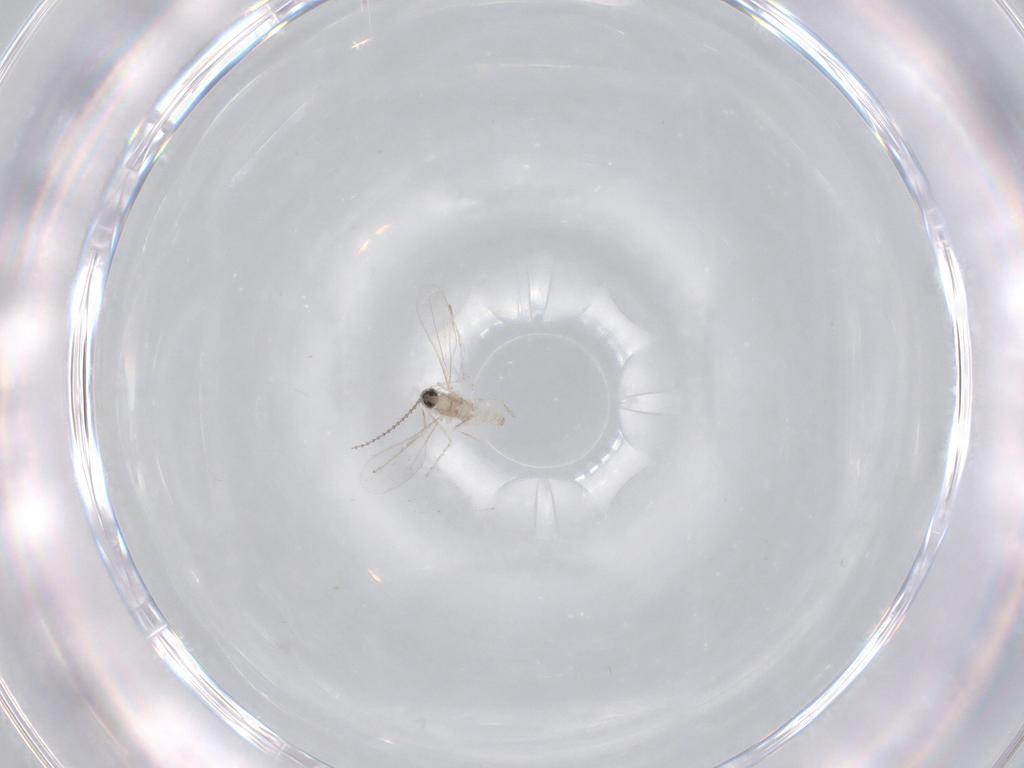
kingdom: Animalia
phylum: Arthropoda
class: Insecta
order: Diptera
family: Cecidomyiidae
